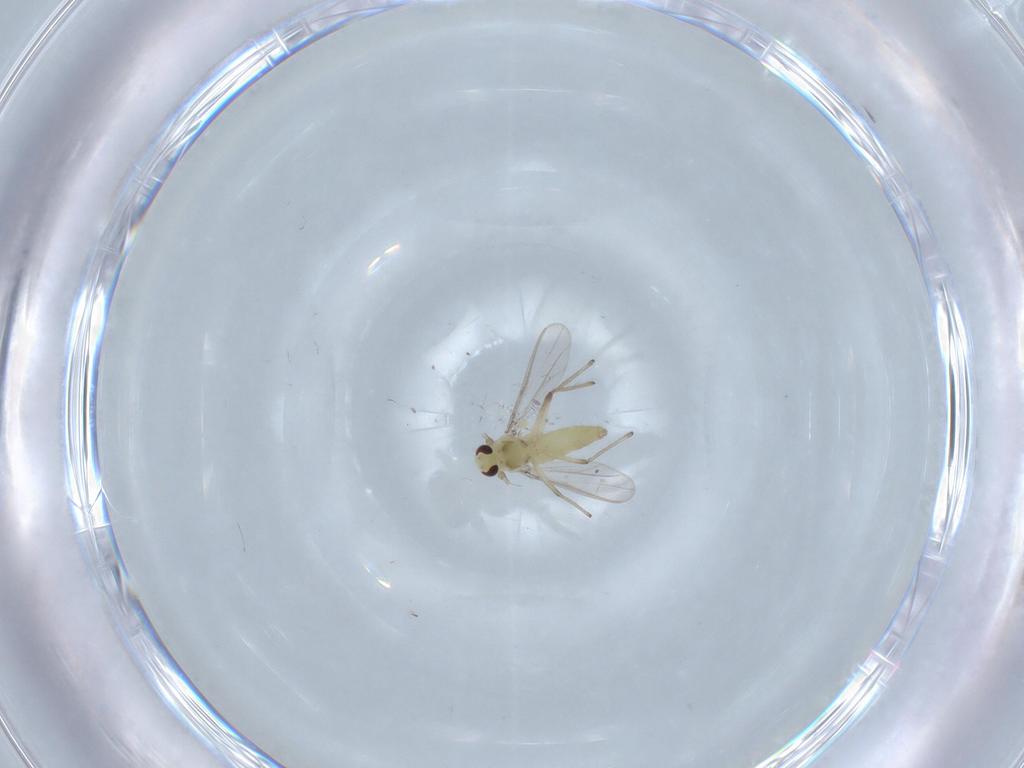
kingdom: Animalia
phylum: Arthropoda
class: Insecta
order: Diptera
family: Chironomidae
